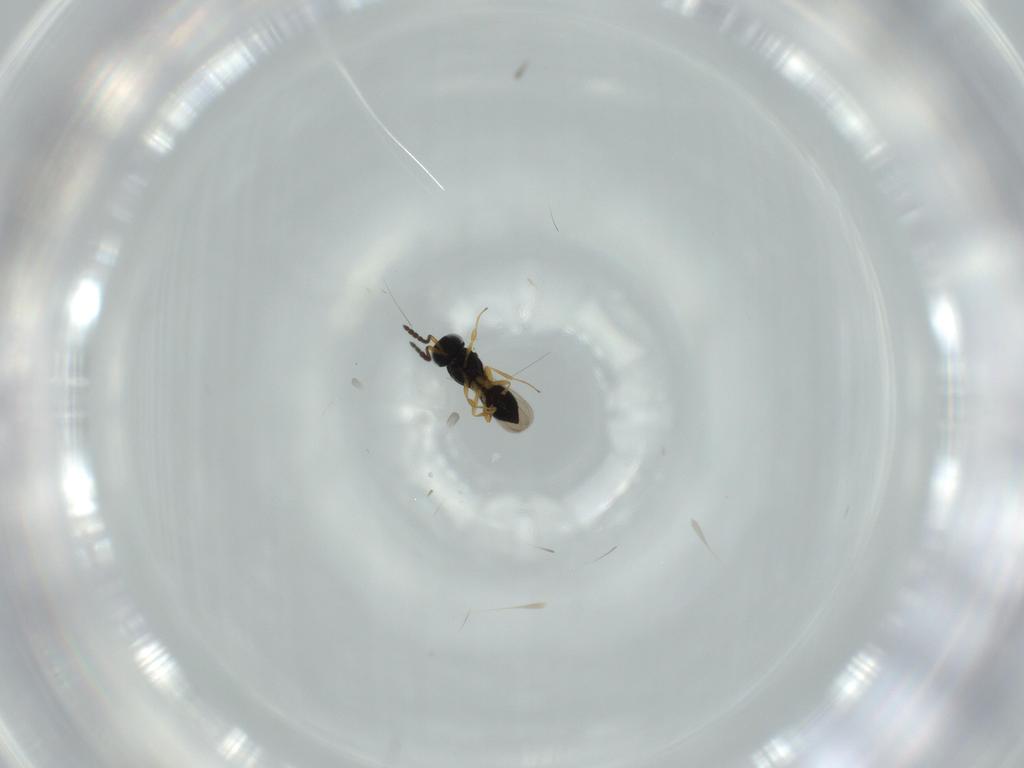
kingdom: Animalia
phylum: Arthropoda
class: Insecta
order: Hymenoptera
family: Scelionidae
